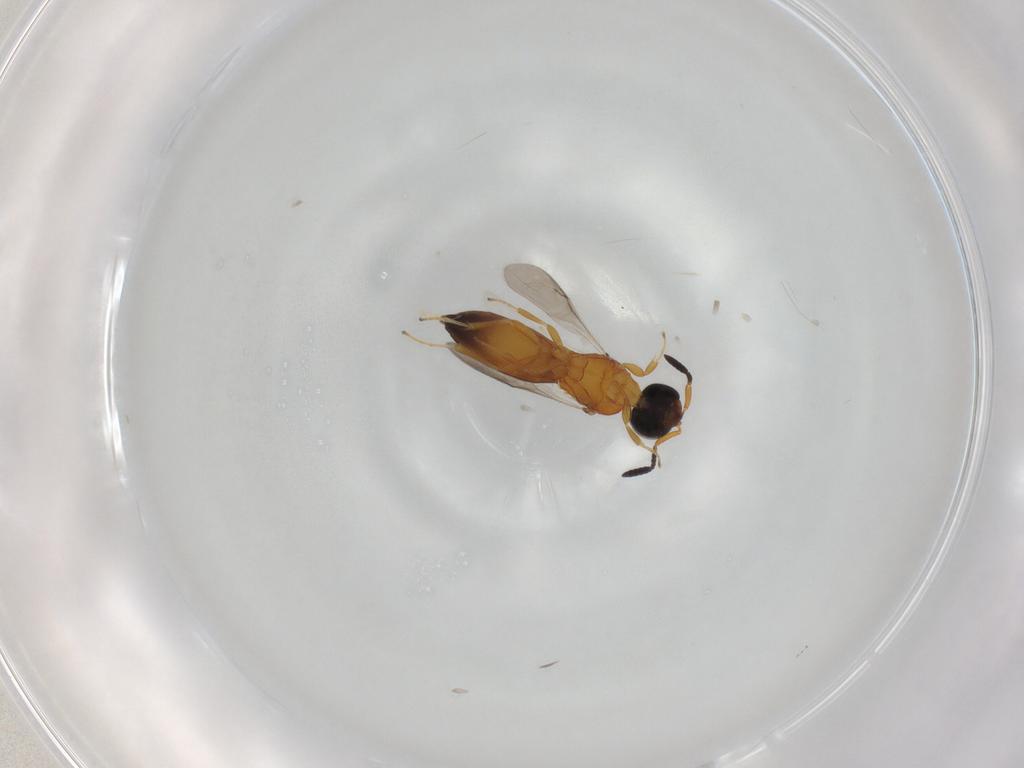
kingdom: Animalia
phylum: Arthropoda
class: Insecta
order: Hymenoptera
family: Scelionidae
